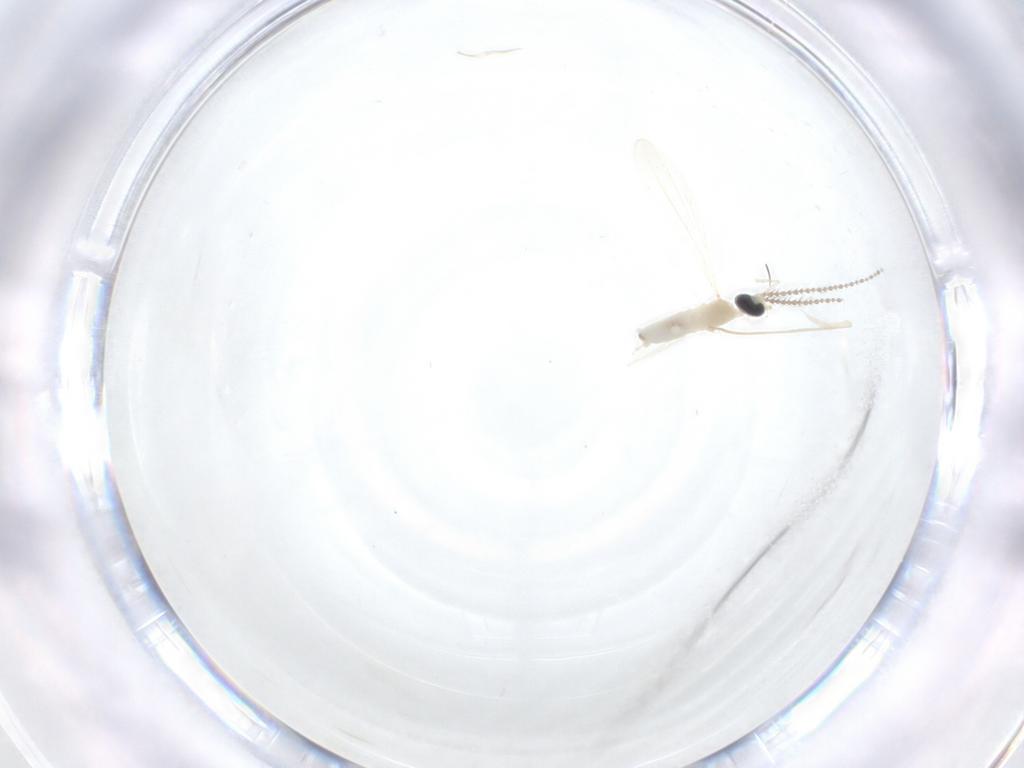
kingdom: Animalia
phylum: Arthropoda
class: Insecta
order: Diptera
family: Cecidomyiidae
